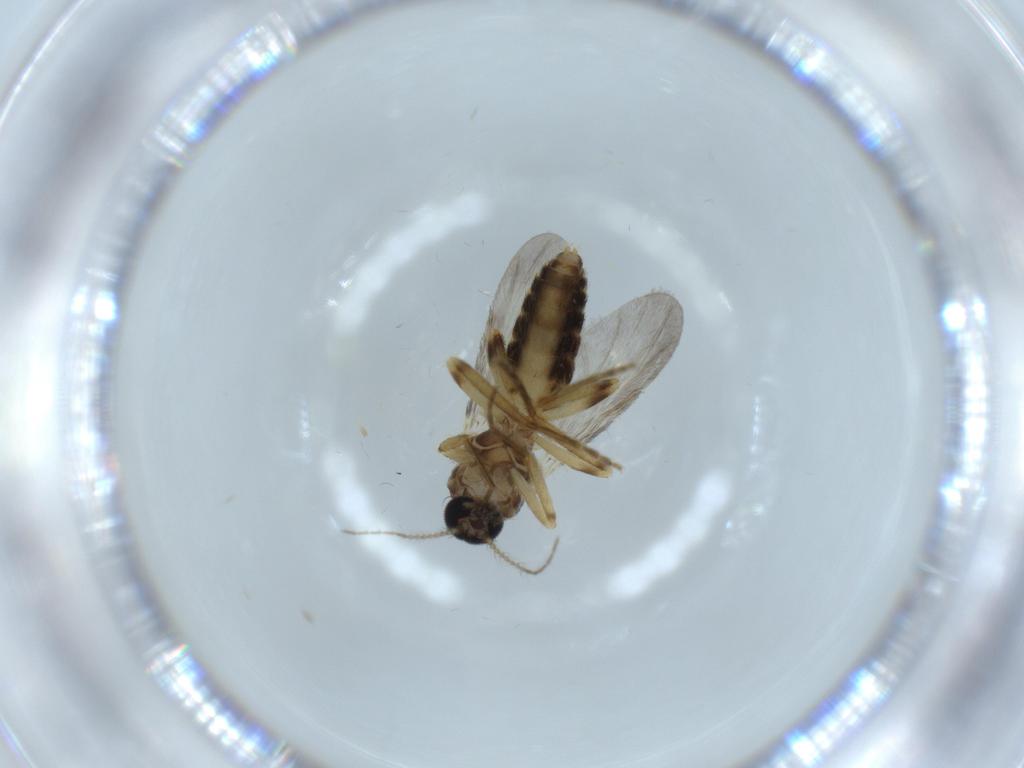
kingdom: Animalia
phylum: Arthropoda
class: Insecta
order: Diptera
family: Ceratopogonidae
